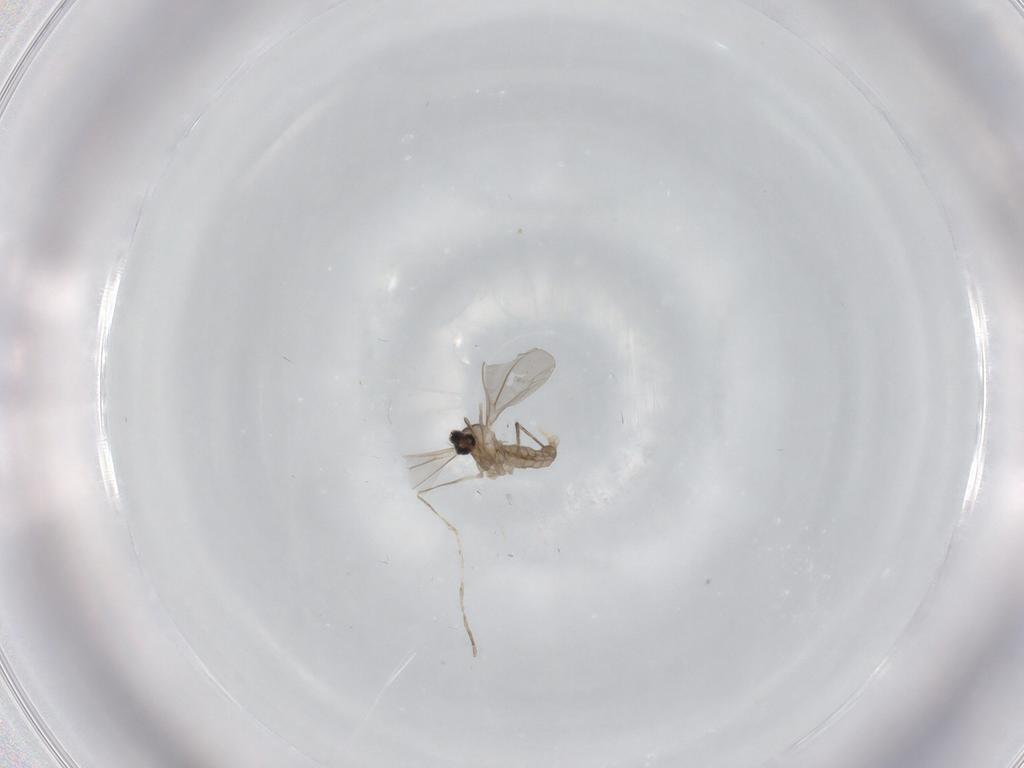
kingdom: Animalia
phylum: Arthropoda
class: Insecta
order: Diptera
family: Cecidomyiidae
